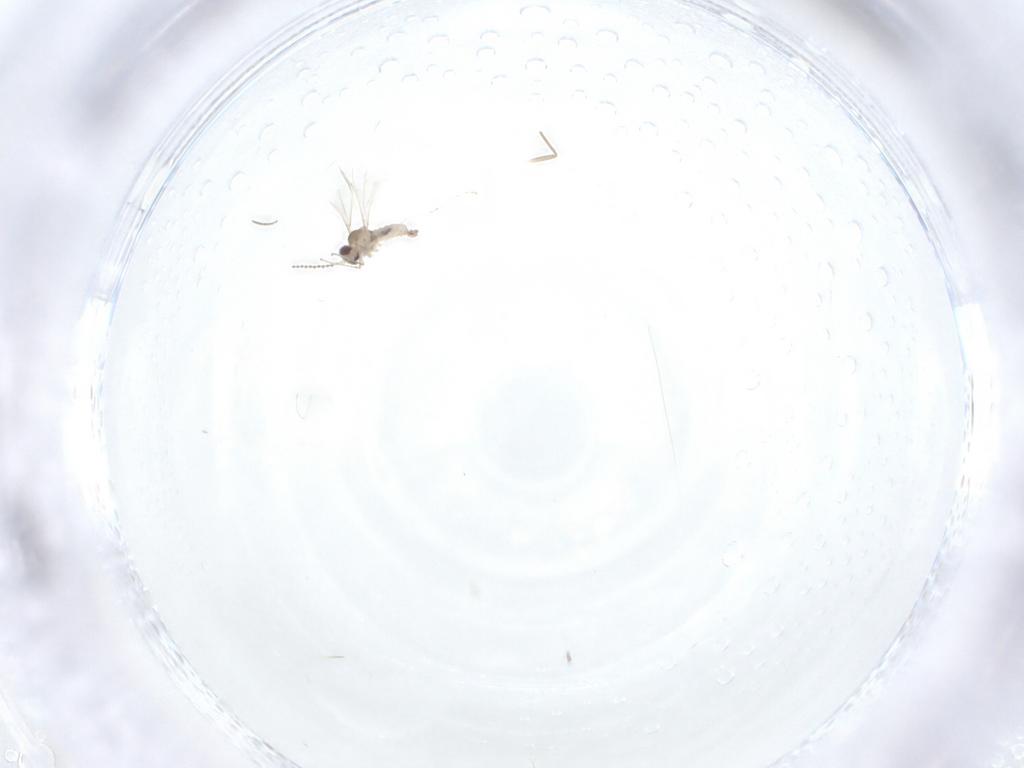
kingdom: Animalia
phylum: Arthropoda
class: Insecta
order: Diptera
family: Chironomidae
